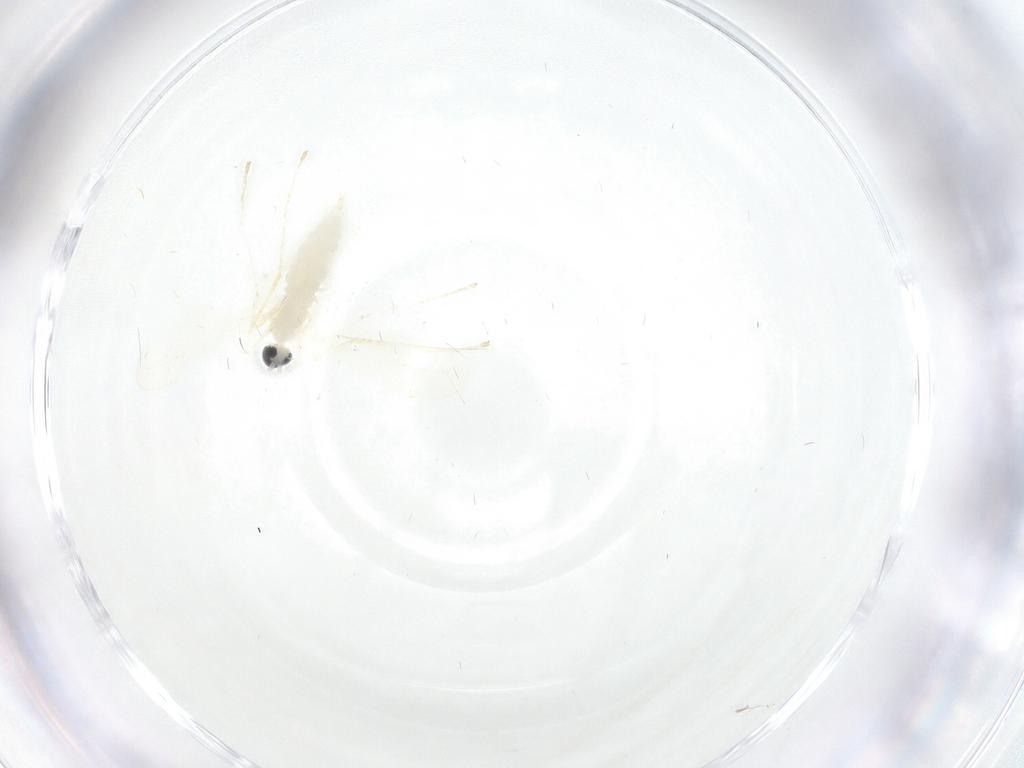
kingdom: Animalia
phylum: Arthropoda
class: Insecta
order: Diptera
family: Cecidomyiidae
